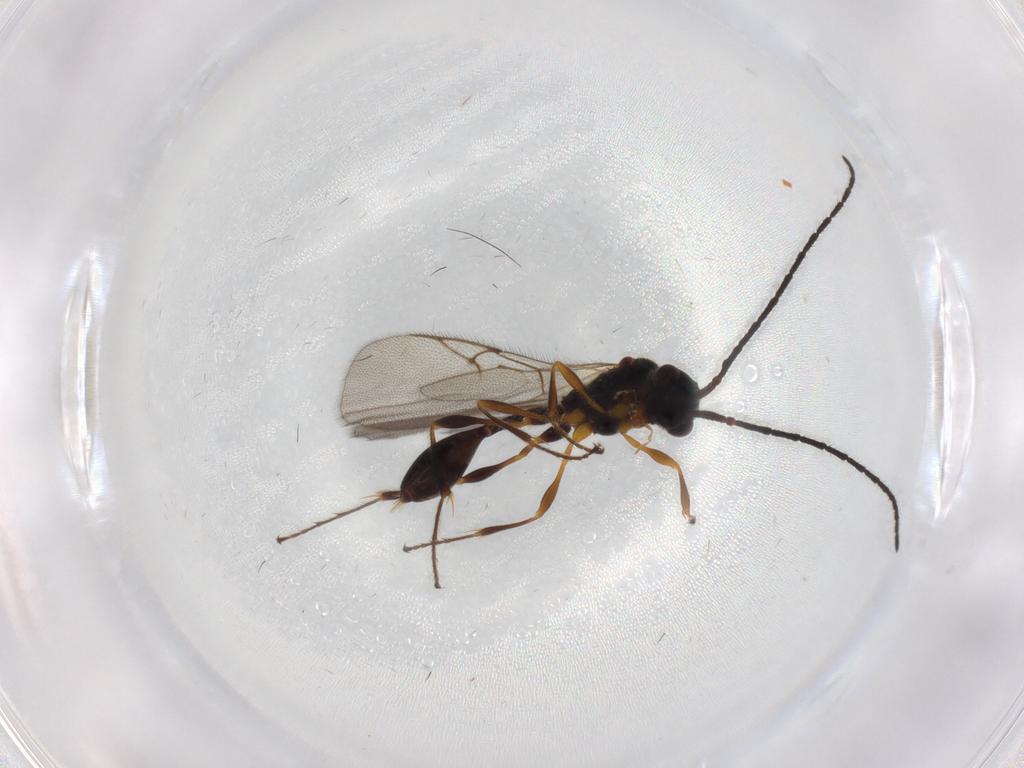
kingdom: Animalia
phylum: Arthropoda
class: Insecta
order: Hymenoptera
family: Diapriidae
